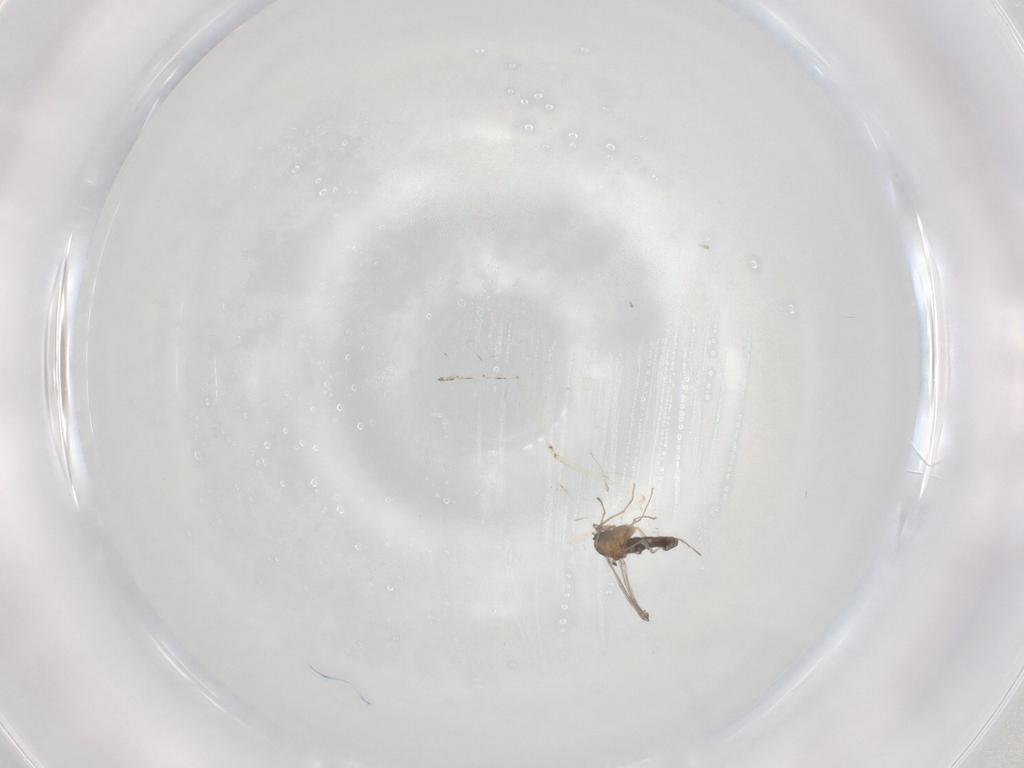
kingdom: Animalia
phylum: Arthropoda
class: Insecta
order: Diptera
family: Chironomidae
